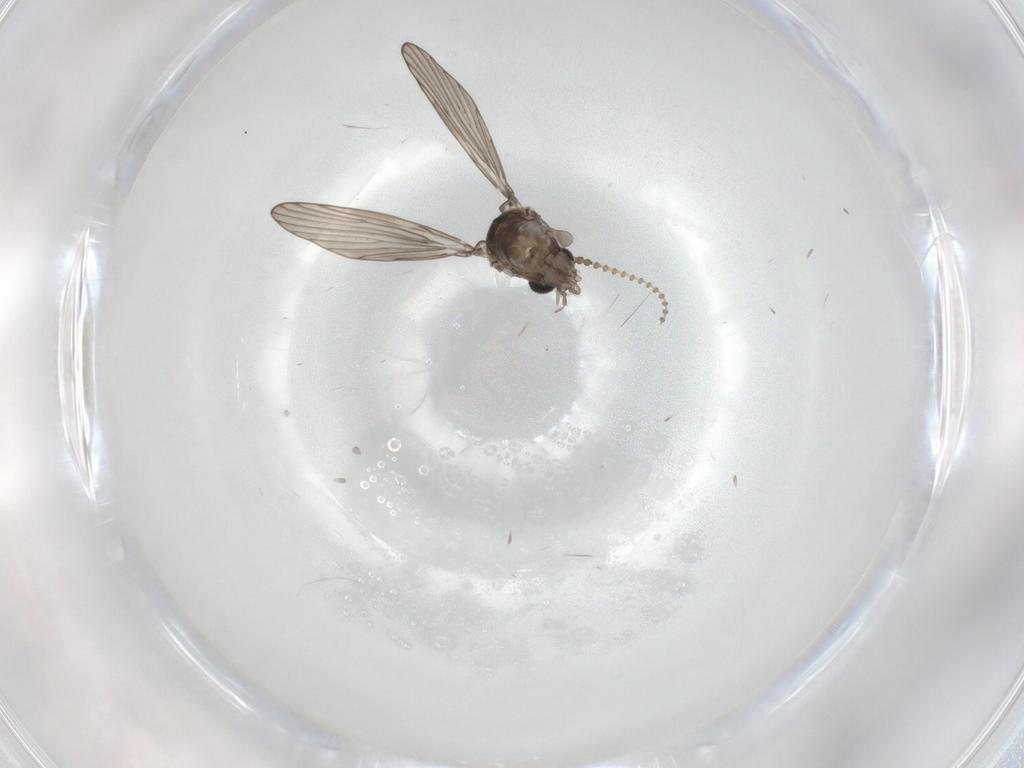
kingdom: Animalia
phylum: Arthropoda
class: Insecta
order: Diptera
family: Psychodidae
